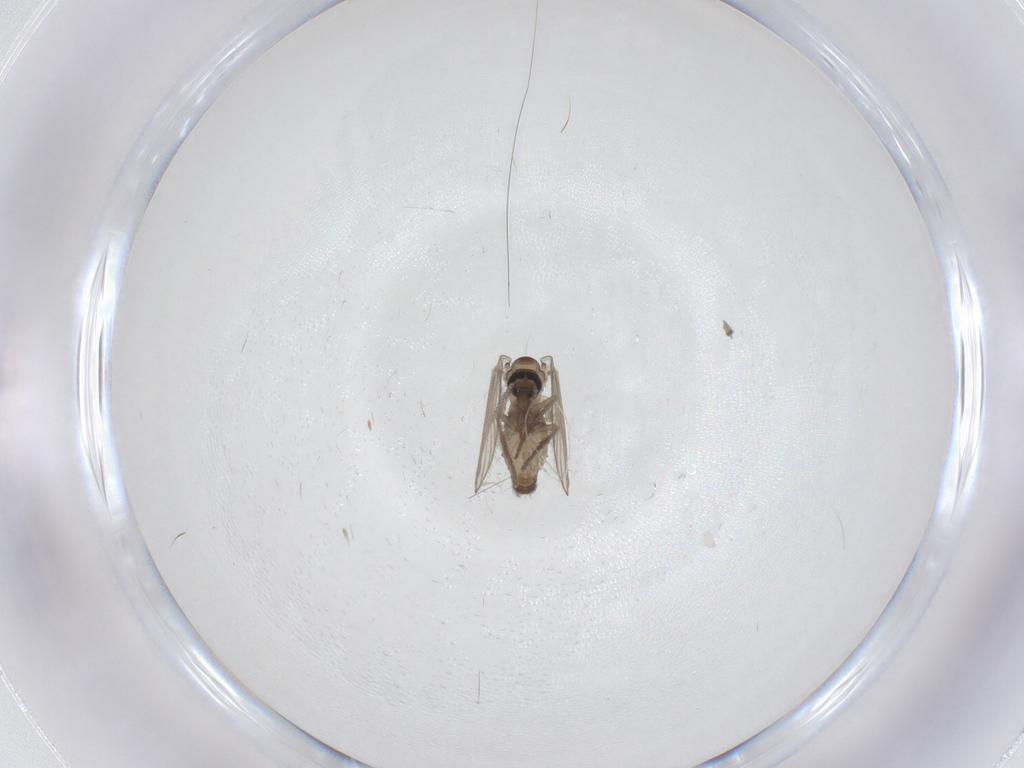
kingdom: Animalia
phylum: Arthropoda
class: Insecta
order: Diptera
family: Psychodidae
